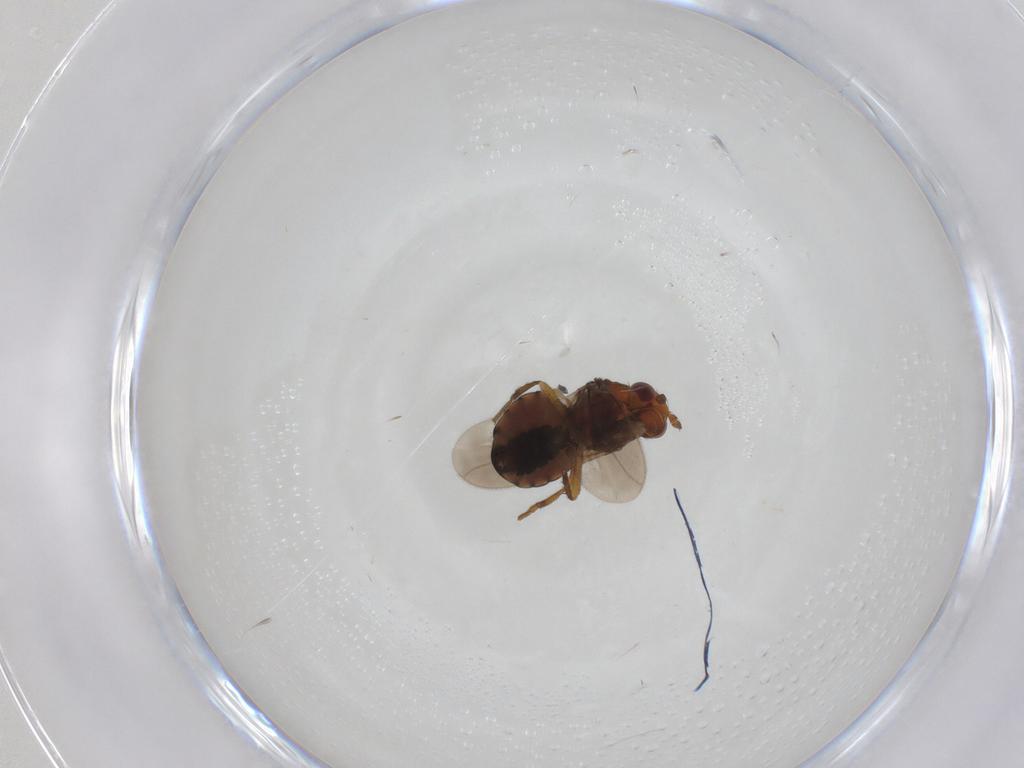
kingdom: Animalia
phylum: Arthropoda
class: Insecta
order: Diptera
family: Sphaeroceridae
